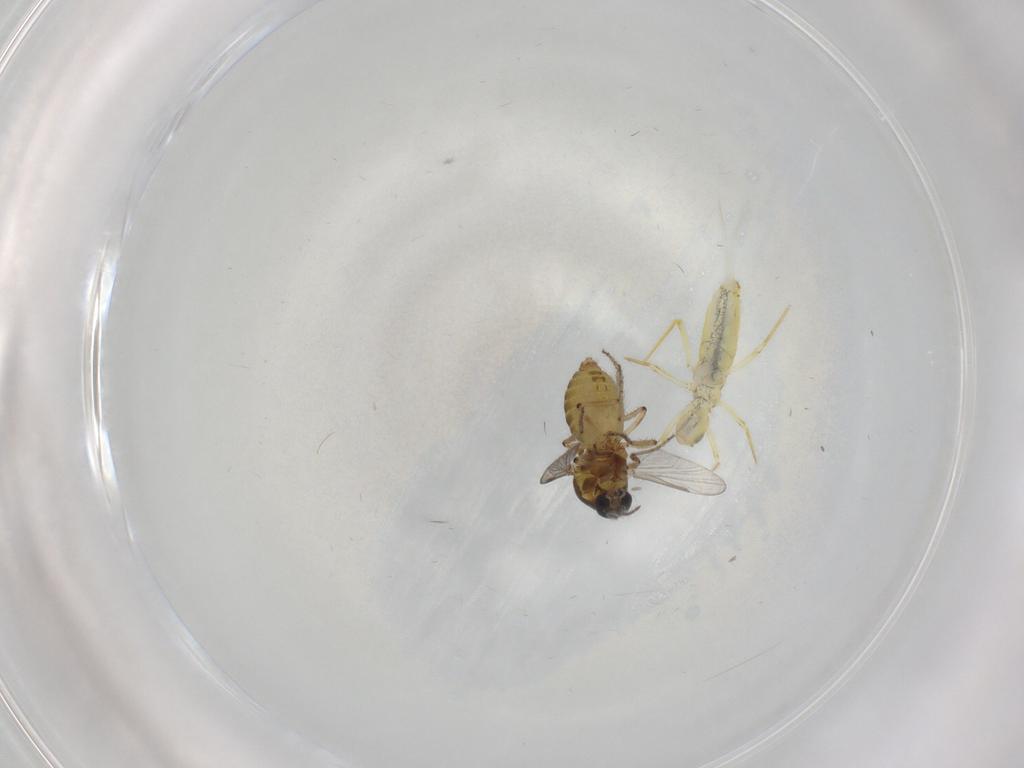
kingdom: Animalia
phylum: Arthropoda
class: Insecta
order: Diptera
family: Ceratopogonidae
